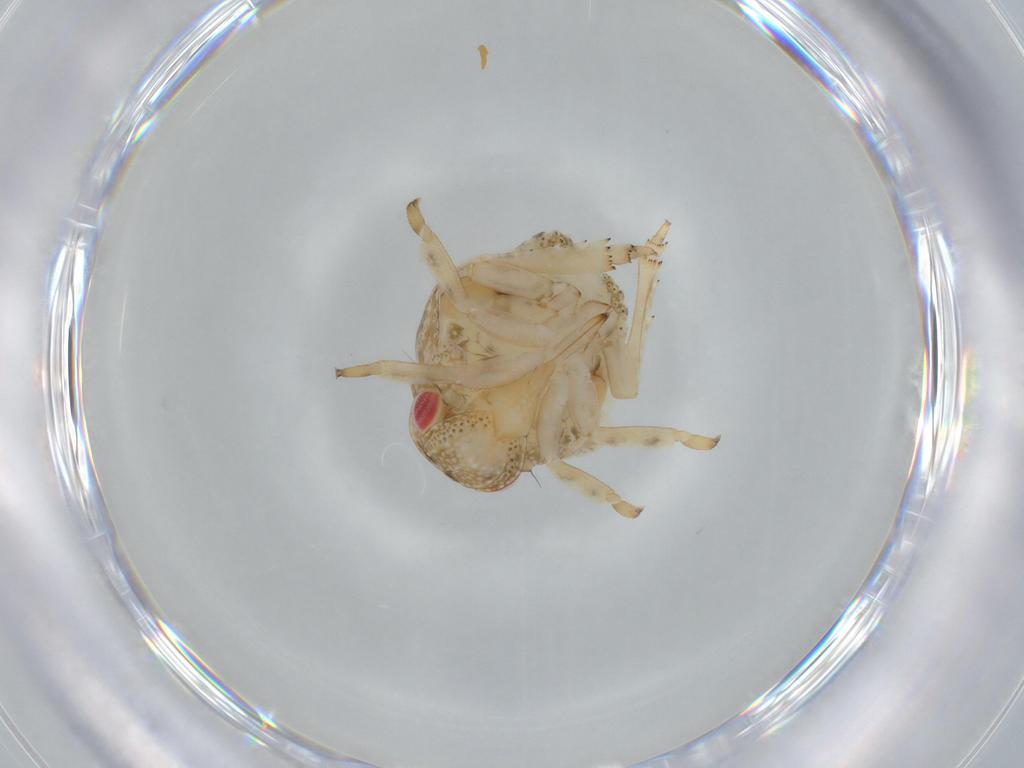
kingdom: Animalia
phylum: Arthropoda
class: Insecta
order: Hemiptera
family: Acanaloniidae
